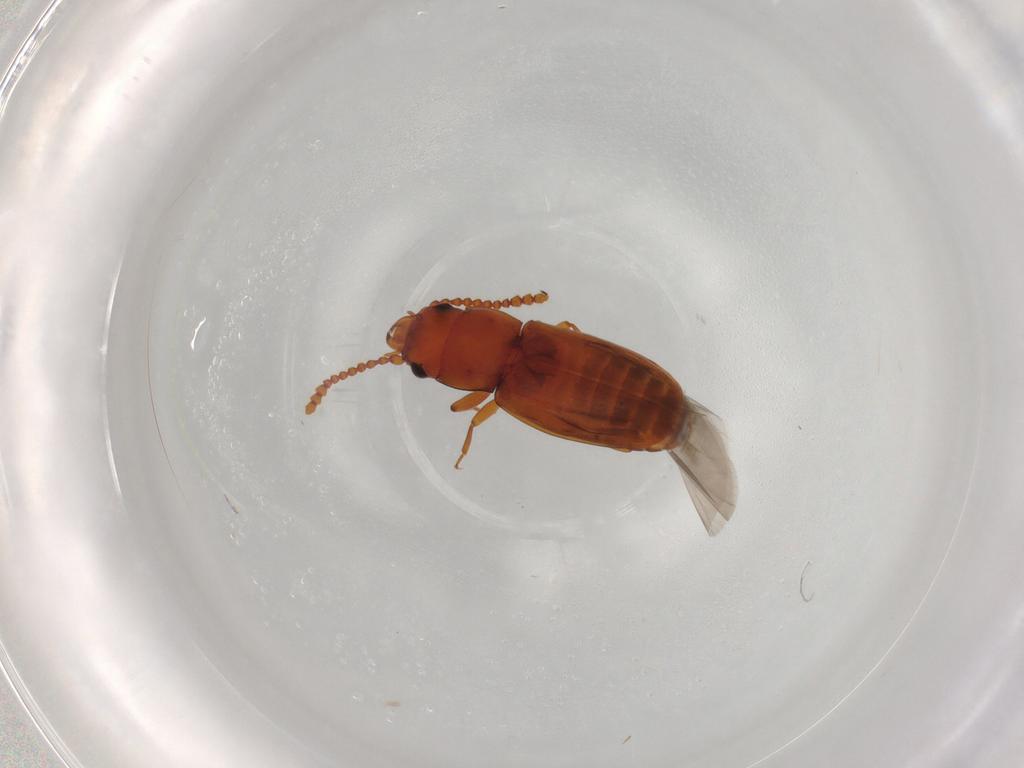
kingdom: Animalia
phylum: Arthropoda
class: Insecta
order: Coleoptera
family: Laemophloeidae
